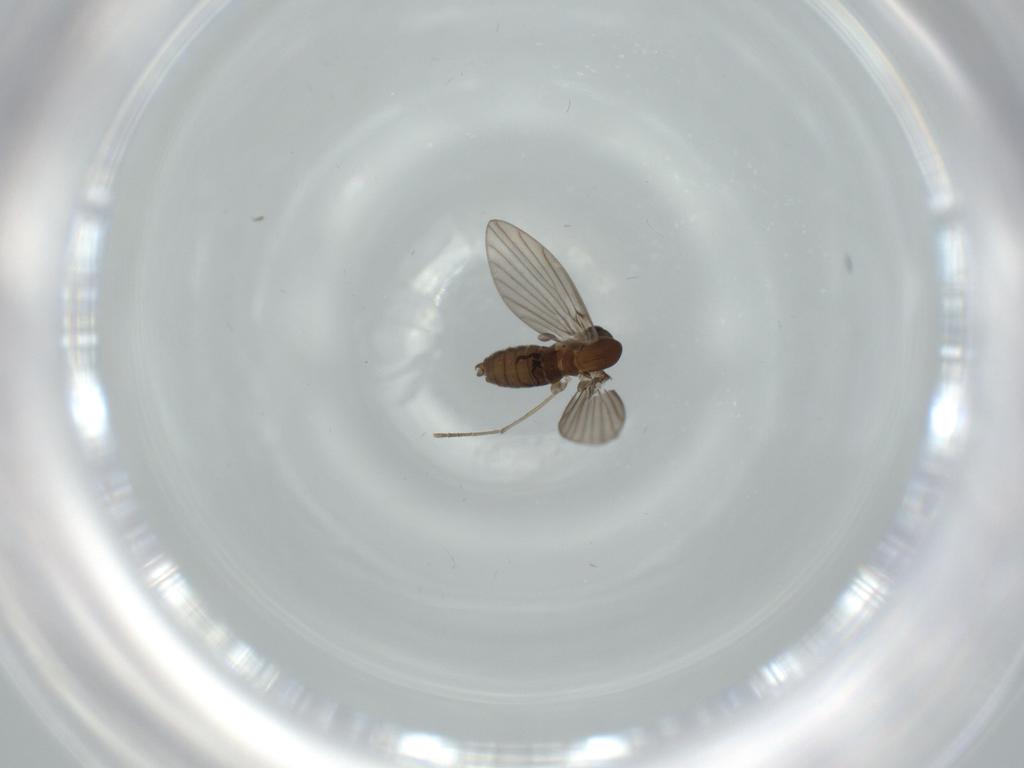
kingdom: Animalia
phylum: Arthropoda
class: Insecta
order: Diptera
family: Psychodidae
